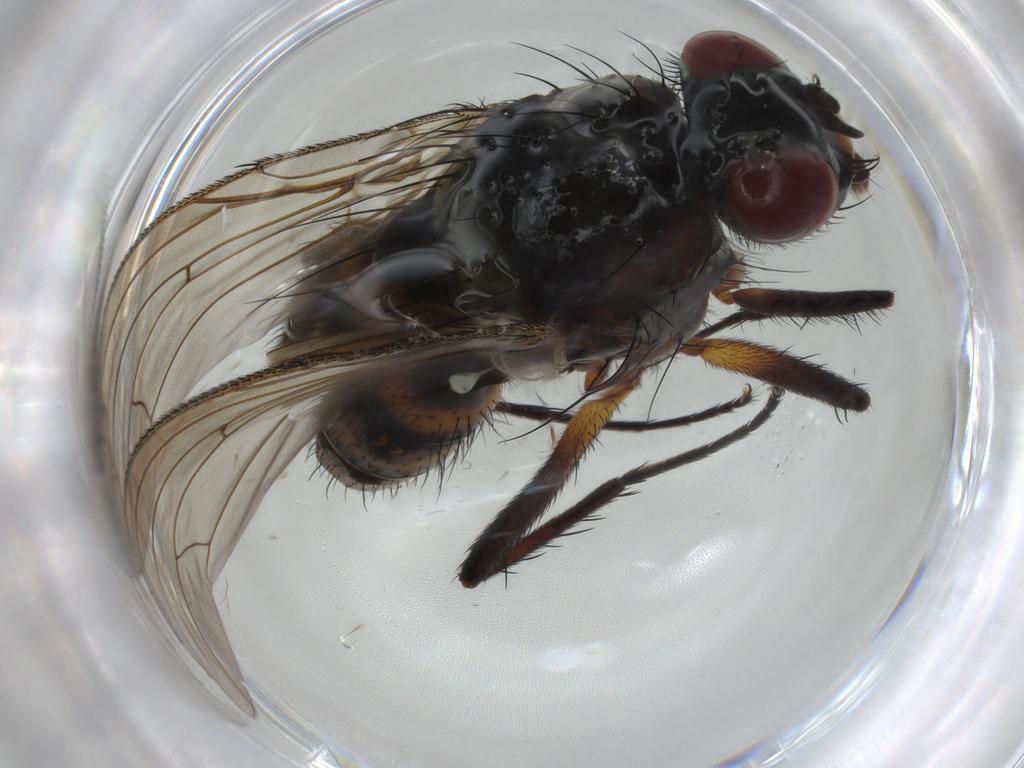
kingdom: Animalia
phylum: Arthropoda
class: Insecta
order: Diptera
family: Anthomyiidae
